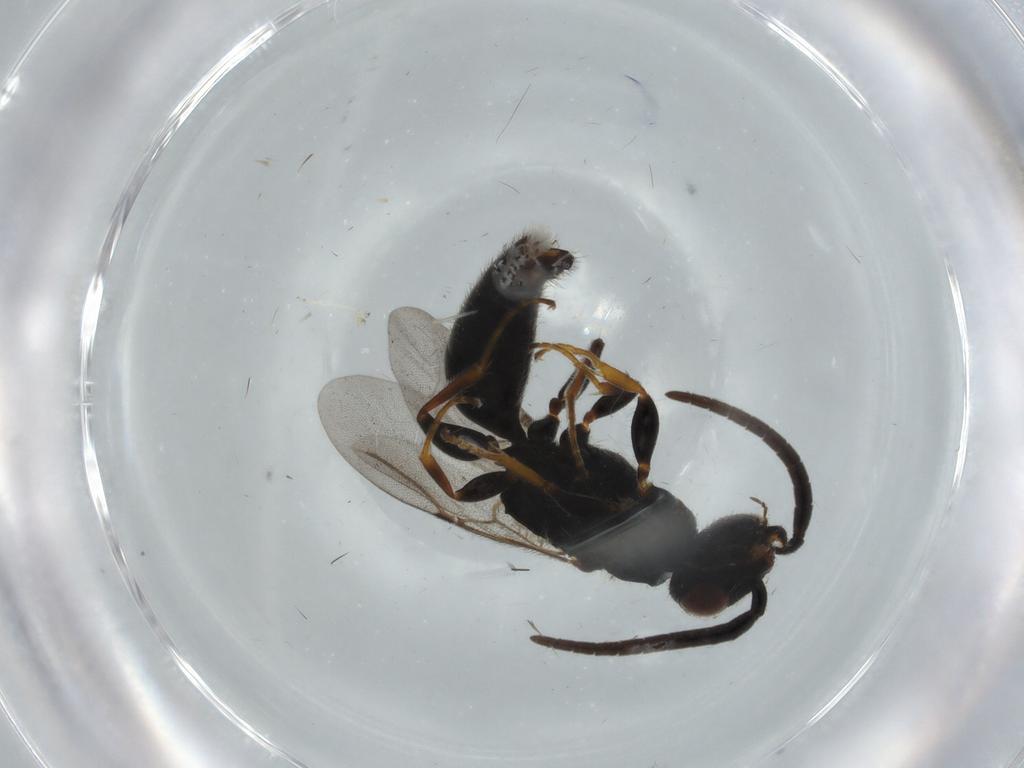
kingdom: Animalia
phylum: Arthropoda
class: Insecta
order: Hymenoptera
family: Bethylidae
